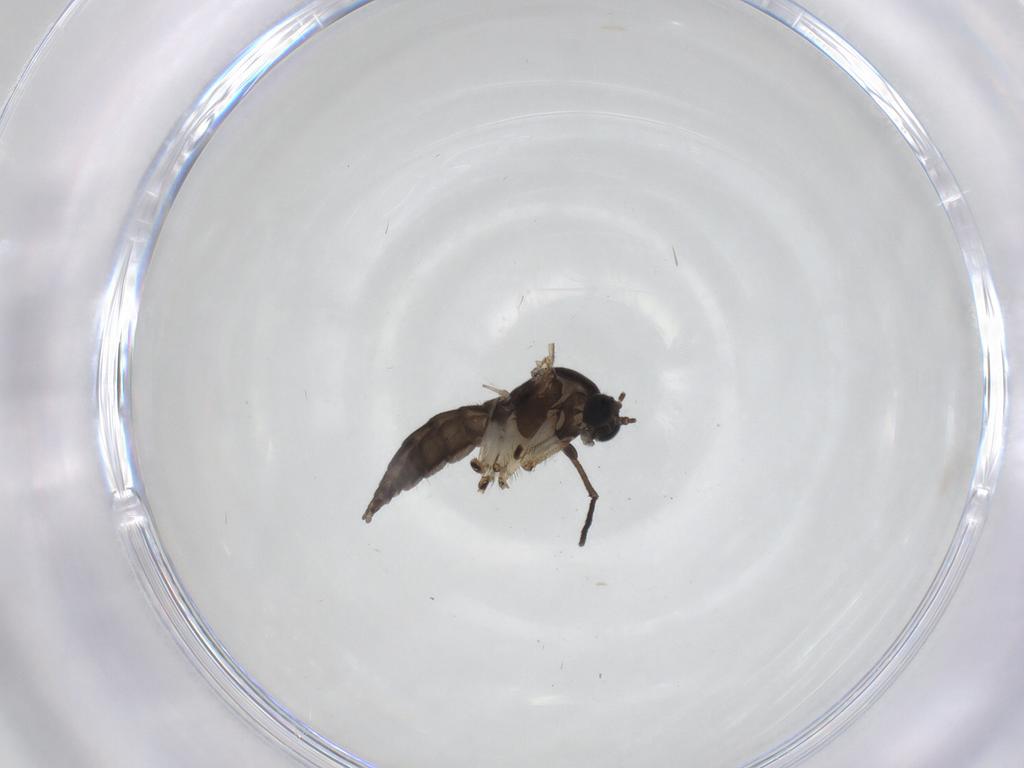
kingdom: Animalia
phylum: Arthropoda
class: Insecta
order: Diptera
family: Sciaridae
